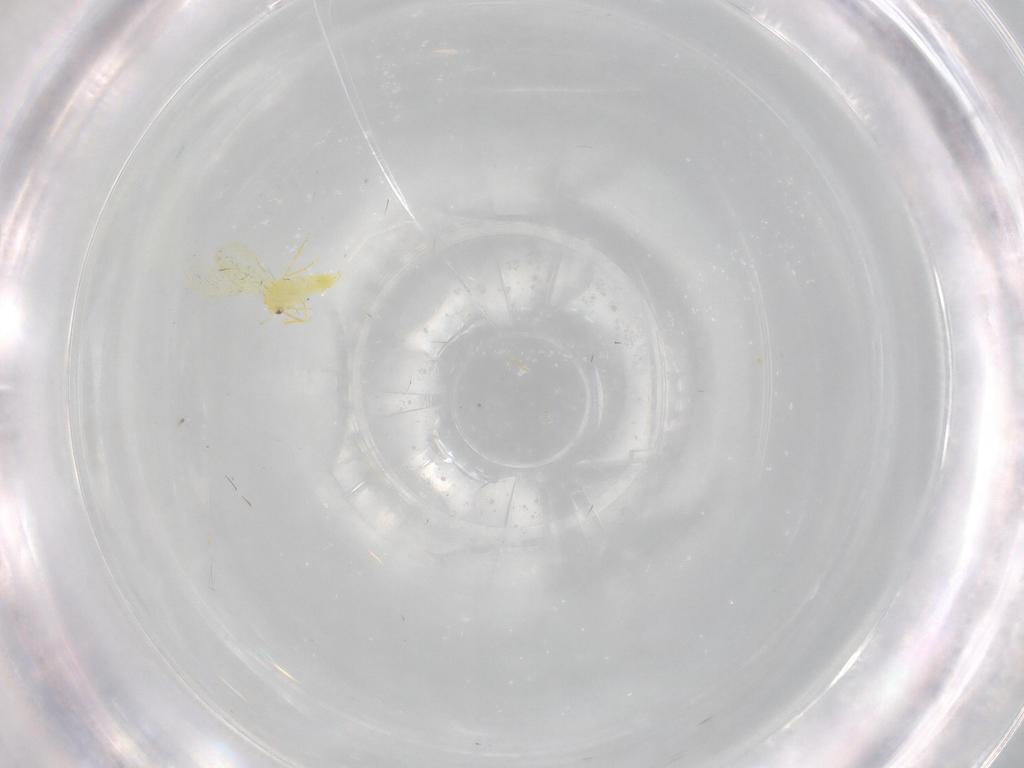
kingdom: Animalia
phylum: Arthropoda
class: Insecta
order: Hemiptera
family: Aleyrodidae
